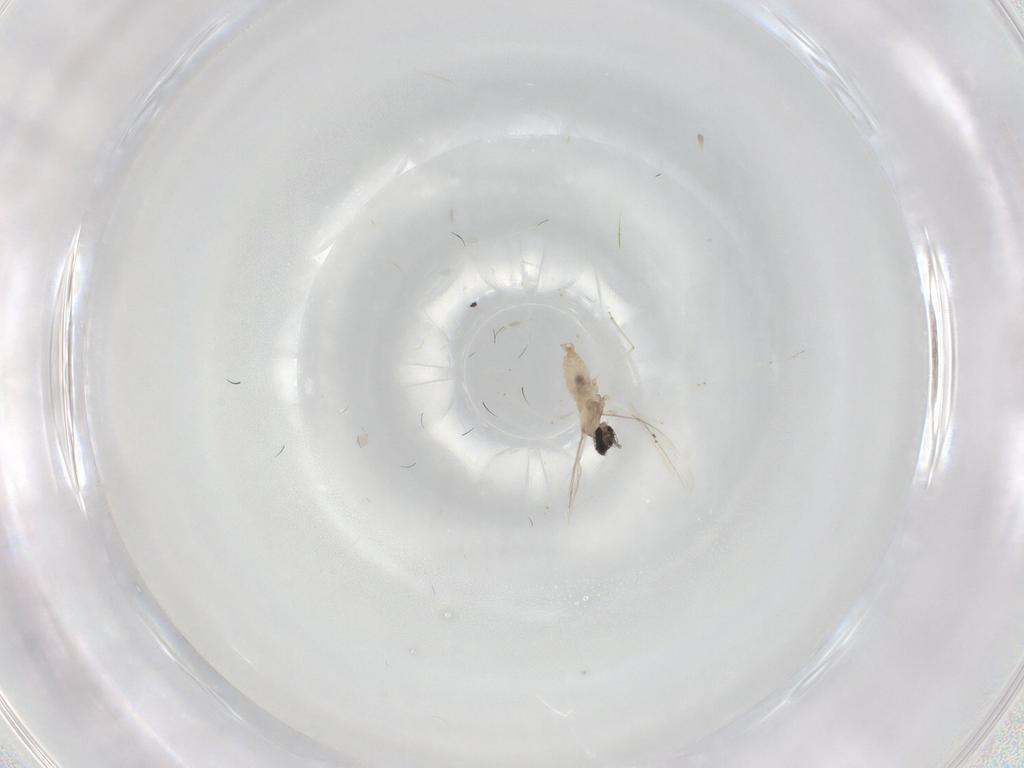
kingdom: Animalia
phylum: Arthropoda
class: Insecta
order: Diptera
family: Cecidomyiidae
